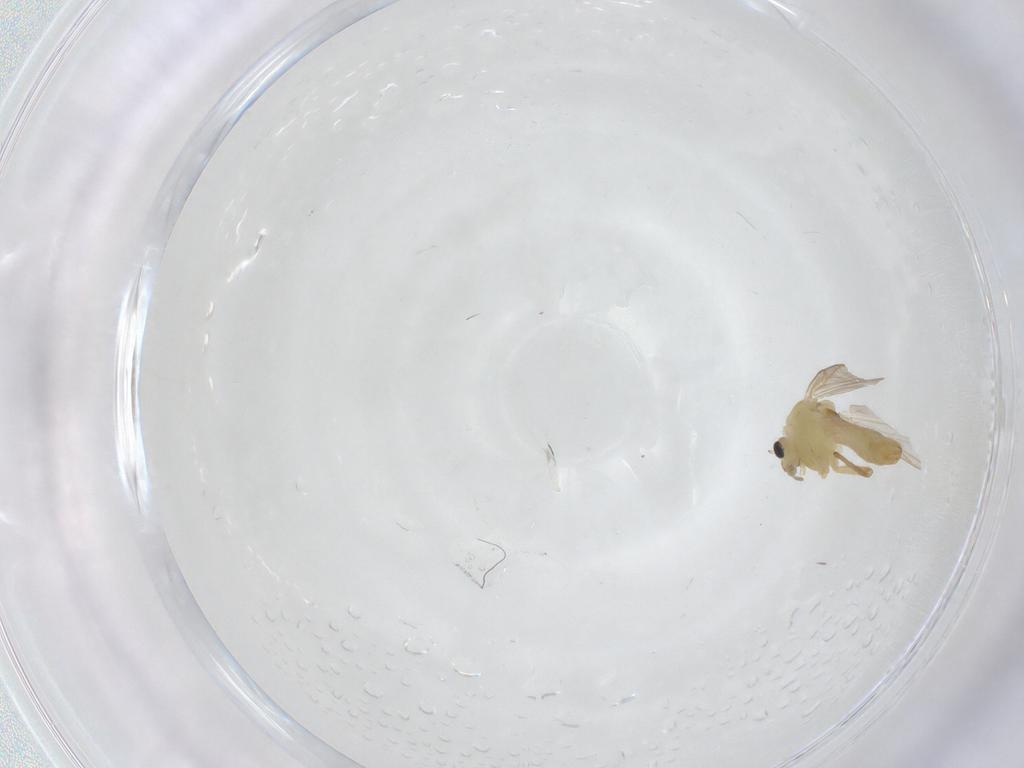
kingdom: Animalia
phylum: Arthropoda
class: Insecta
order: Diptera
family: Chironomidae
